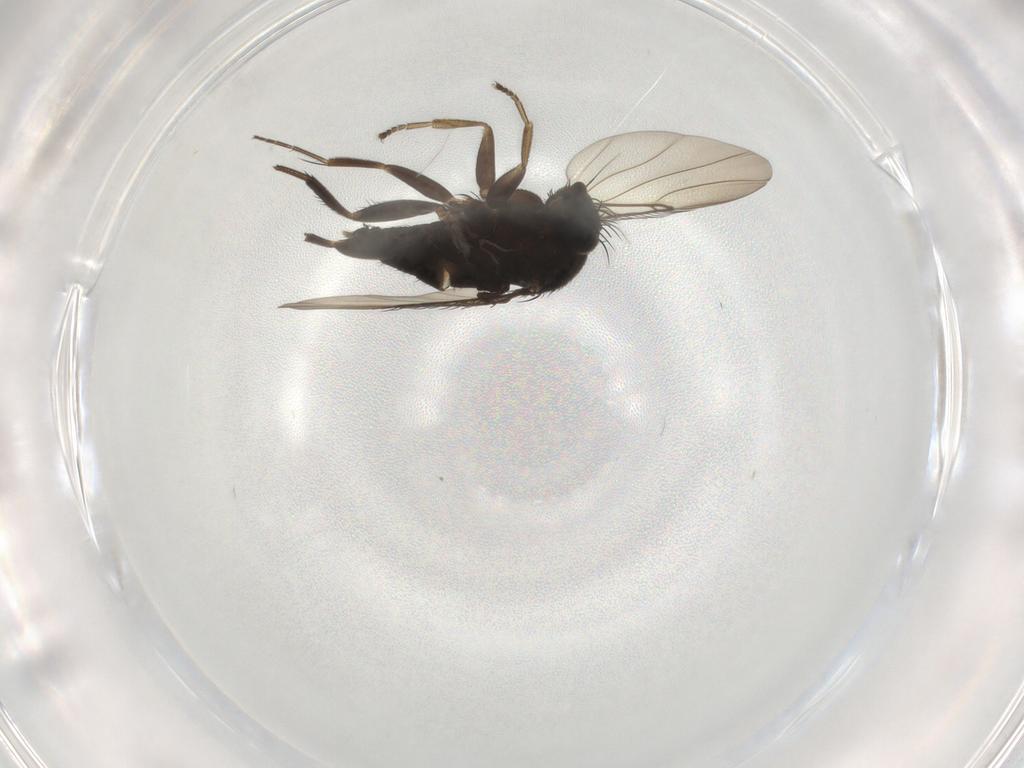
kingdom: Animalia
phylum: Arthropoda
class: Insecta
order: Diptera
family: Phoridae
